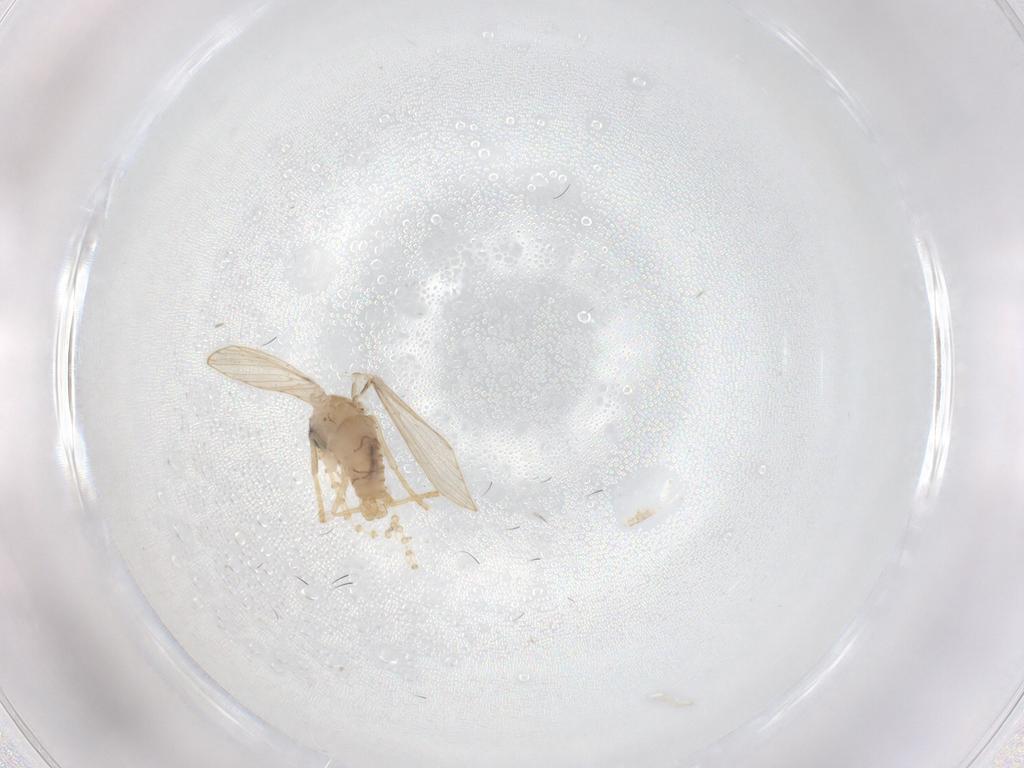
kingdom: Animalia
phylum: Arthropoda
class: Insecta
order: Diptera
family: Psychodidae
